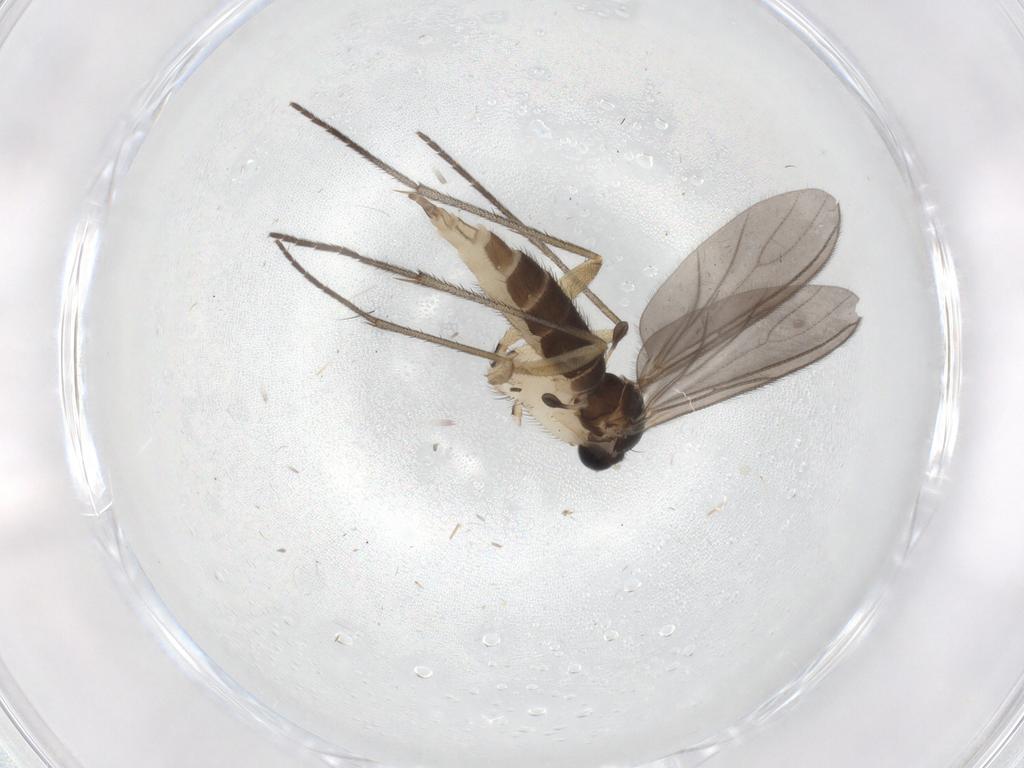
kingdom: Animalia
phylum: Arthropoda
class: Insecta
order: Diptera
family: Sciaridae
